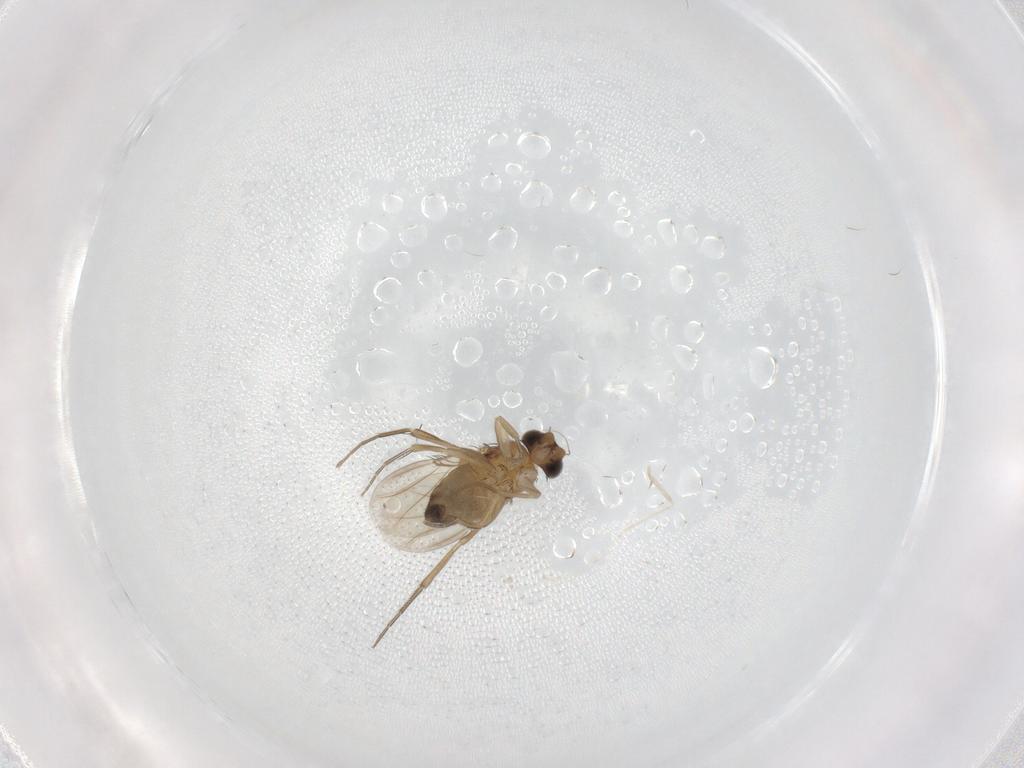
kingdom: Animalia
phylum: Arthropoda
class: Insecta
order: Diptera
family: Phoridae
